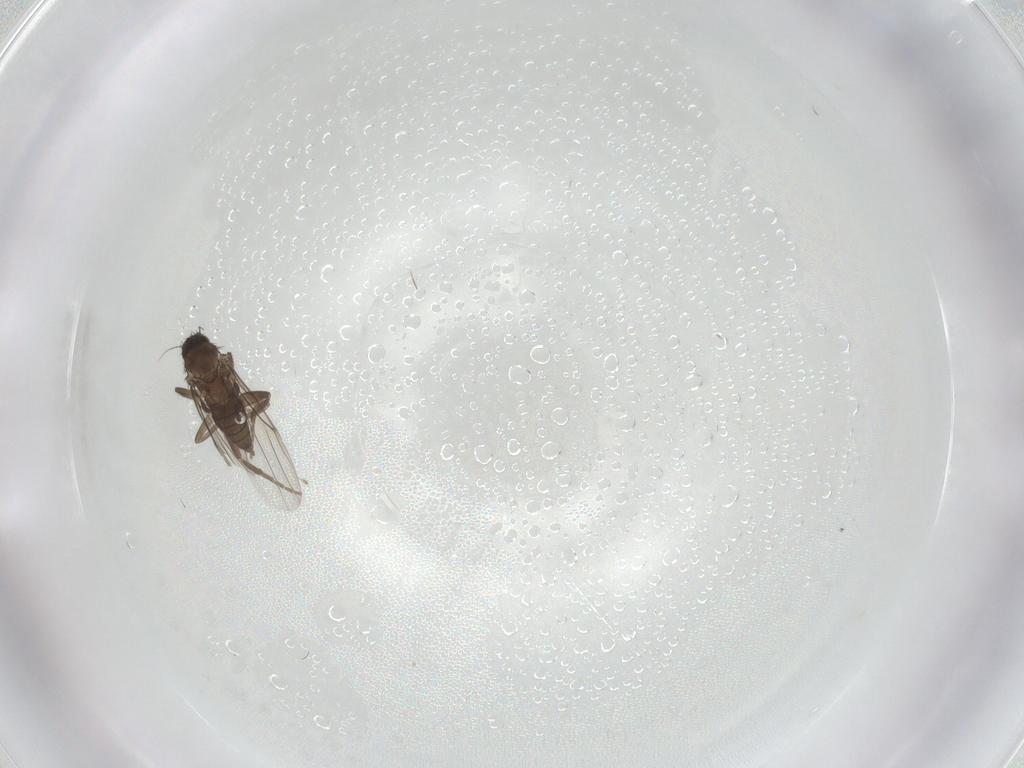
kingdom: Animalia
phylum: Arthropoda
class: Insecta
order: Diptera
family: Phoridae
